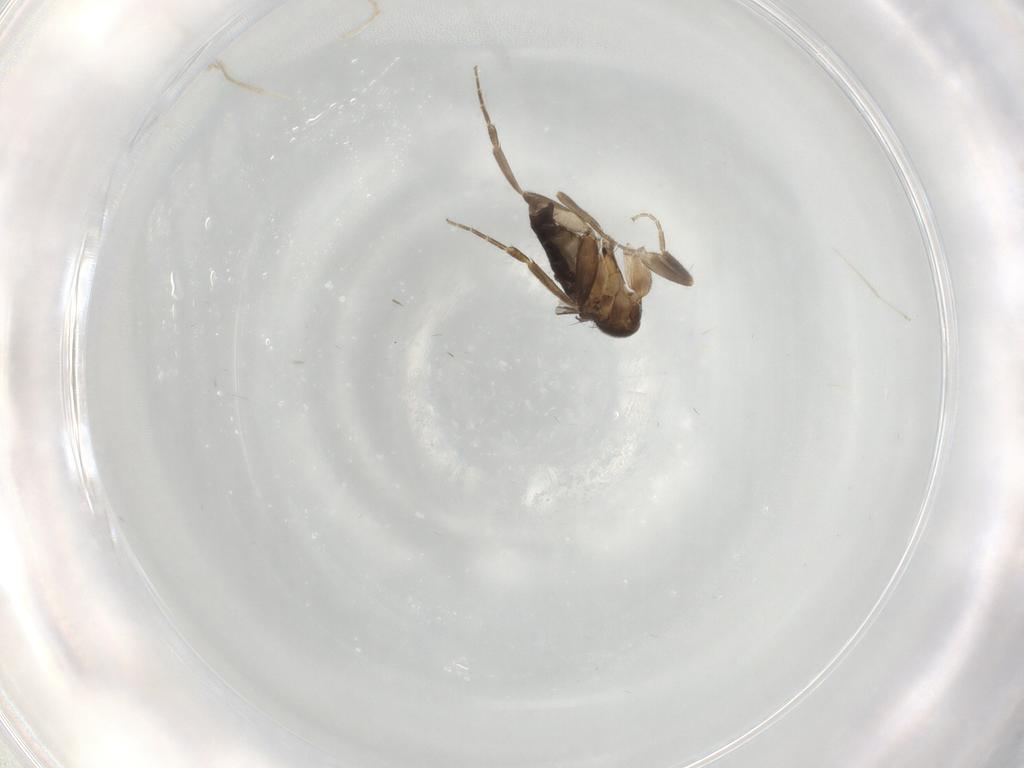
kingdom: Animalia
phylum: Arthropoda
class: Insecta
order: Diptera
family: Phoridae
